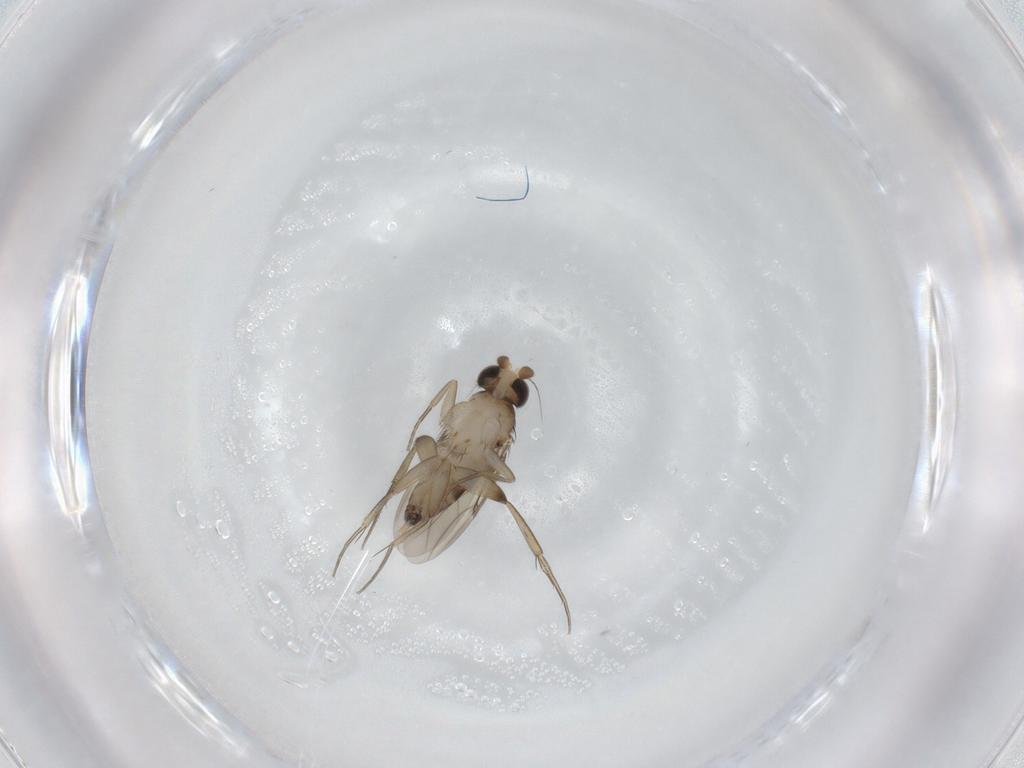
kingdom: Animalia
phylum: Arthropoda
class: Insecta
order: Diptera
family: Phoridae
